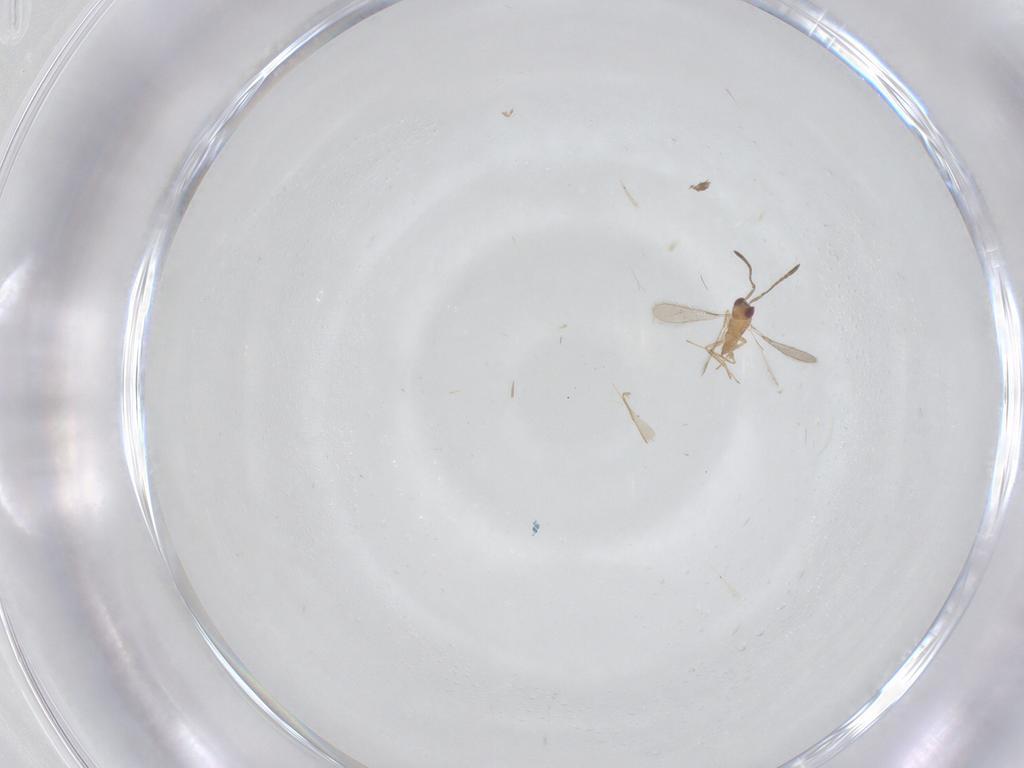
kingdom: Animalia
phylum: Arthropoda
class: Insecta
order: Hymenoptera
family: Mymaridae
